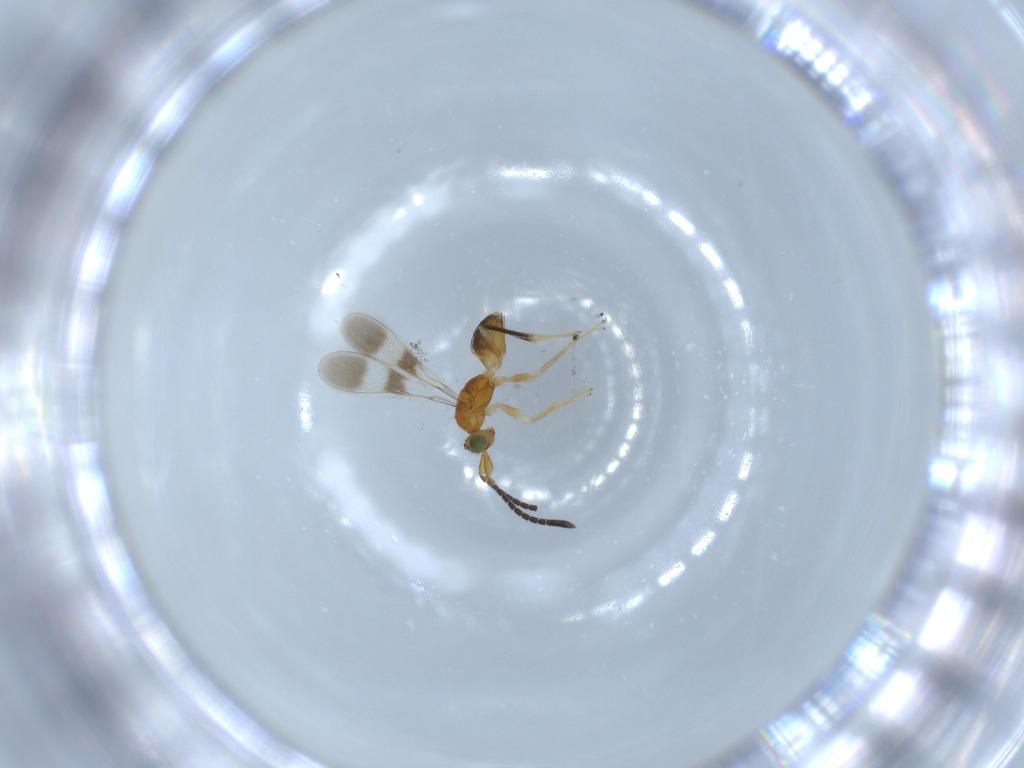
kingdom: Animalia
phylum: Arthropoda
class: Insecta
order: Hymenoptera
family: Mymaridae
